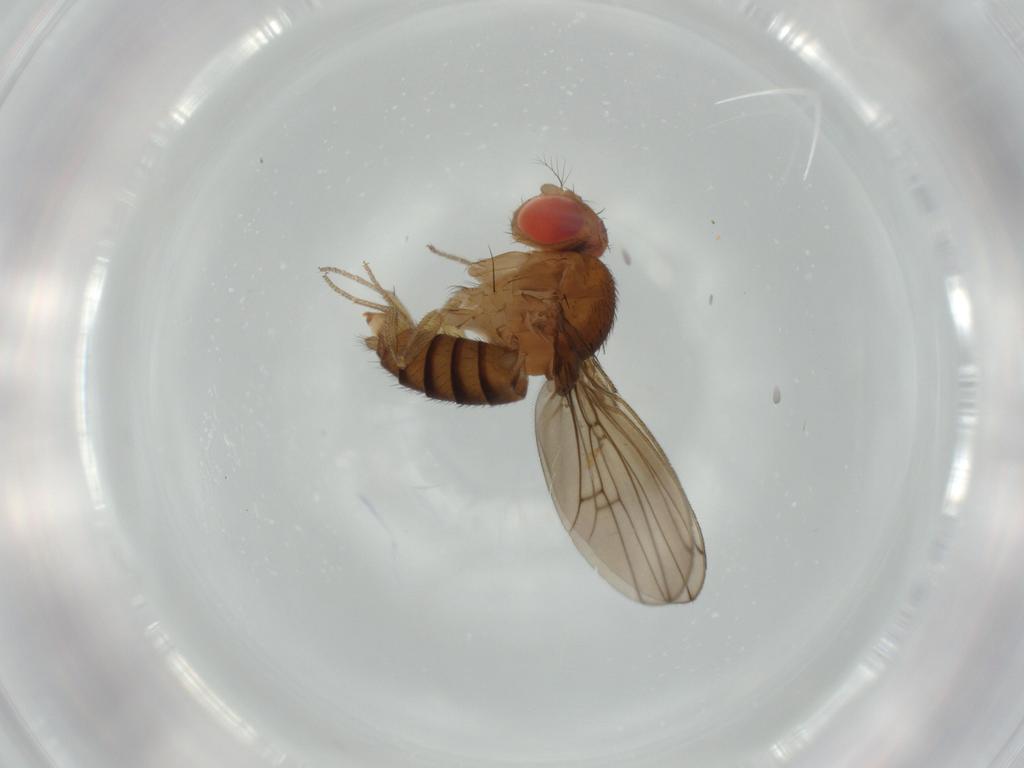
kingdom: Animalia
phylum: Arthropoda
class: Insecta
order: Diptera
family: Drosophilidae
